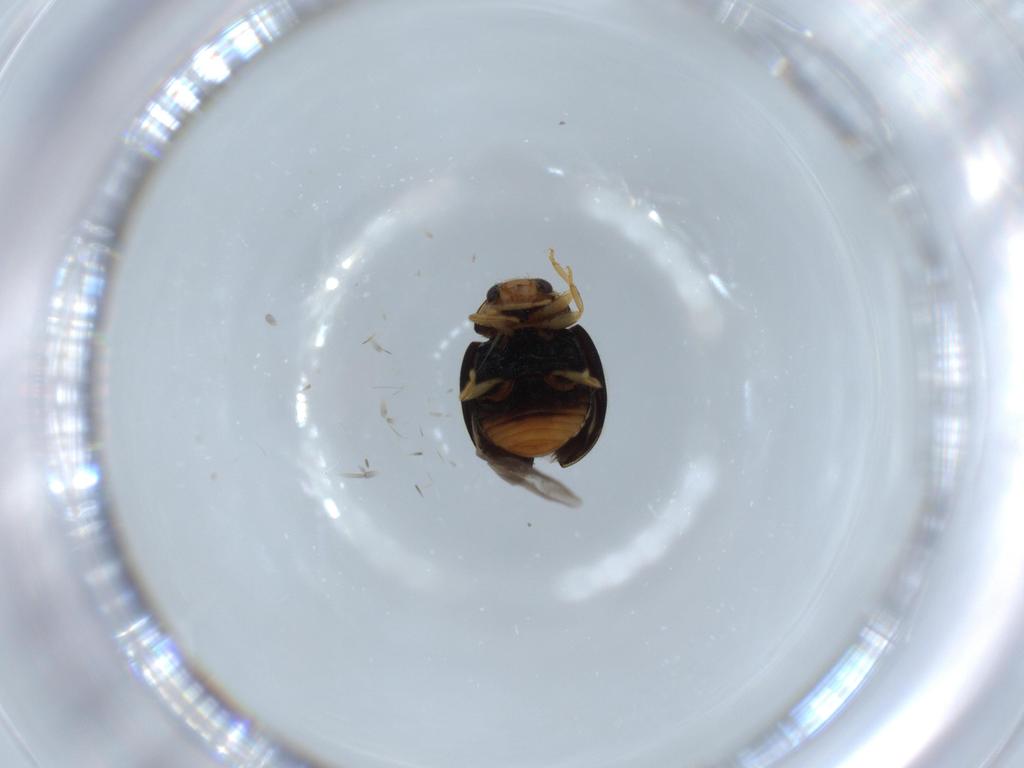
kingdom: Animalia
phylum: Arthropoda
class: Insecta
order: Coleoptera
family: Coccinellidae
